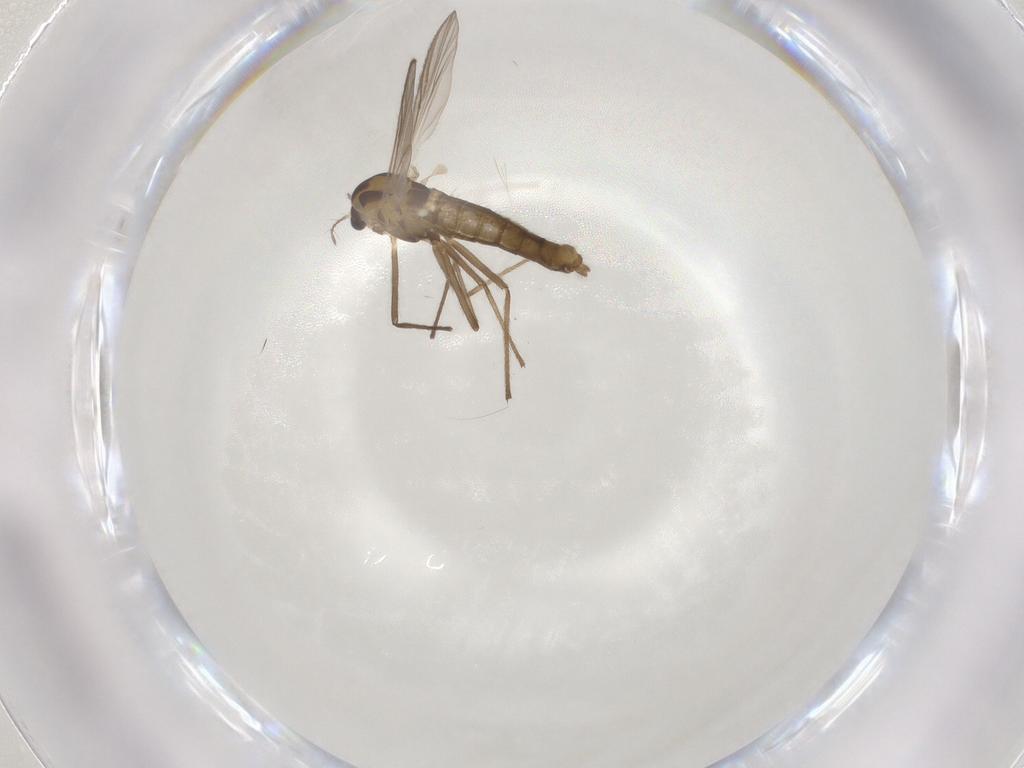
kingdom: Animalia
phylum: Arthropoda
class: Insecta
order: Diptera
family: Chironomidae
